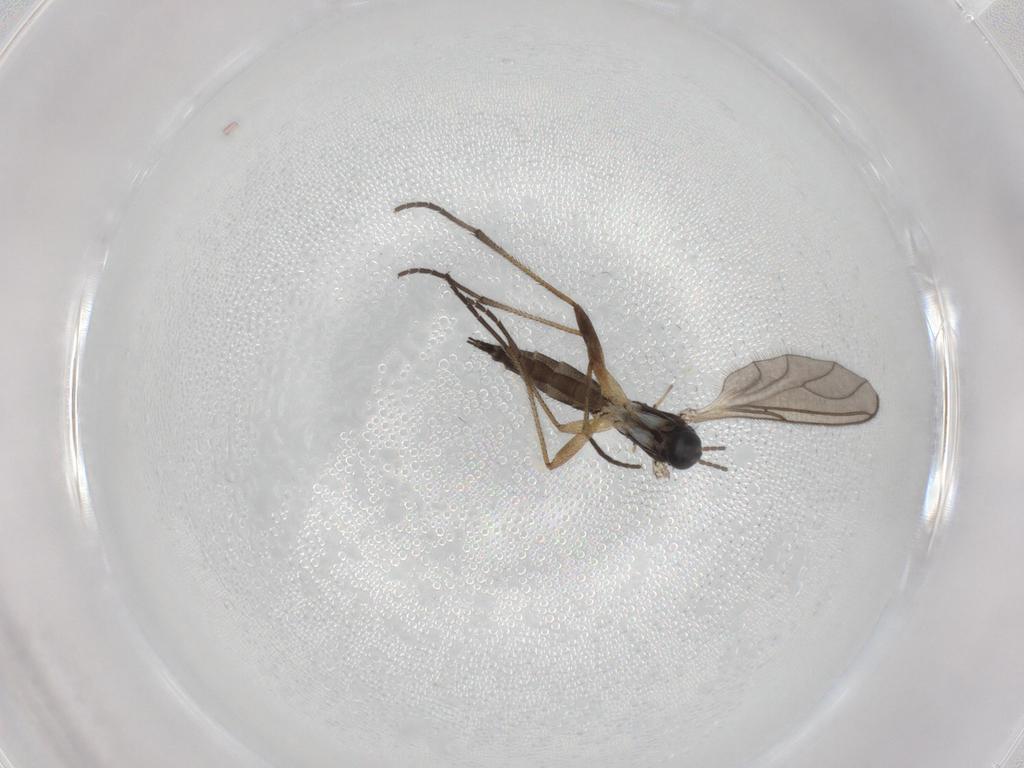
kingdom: Animalia
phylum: Arthropoda
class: Insecta
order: Diptera
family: Sciaridae
